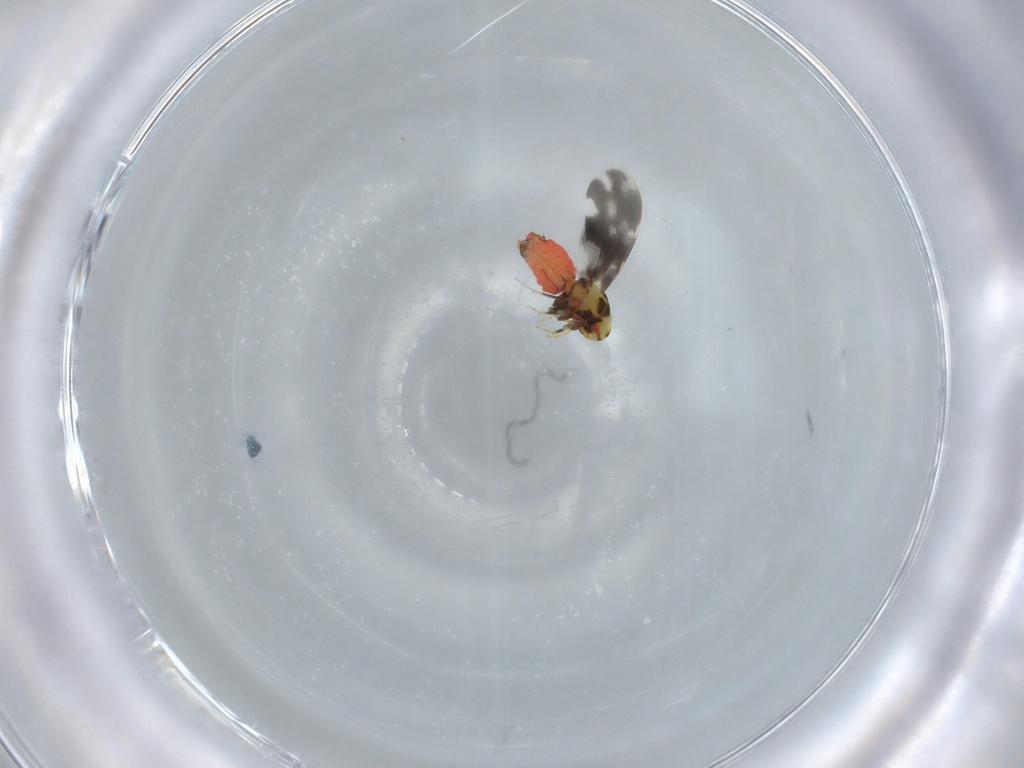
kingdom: Animalia
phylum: Arthropoda
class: Insecta
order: Hemiptera
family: Aleyrodidae
